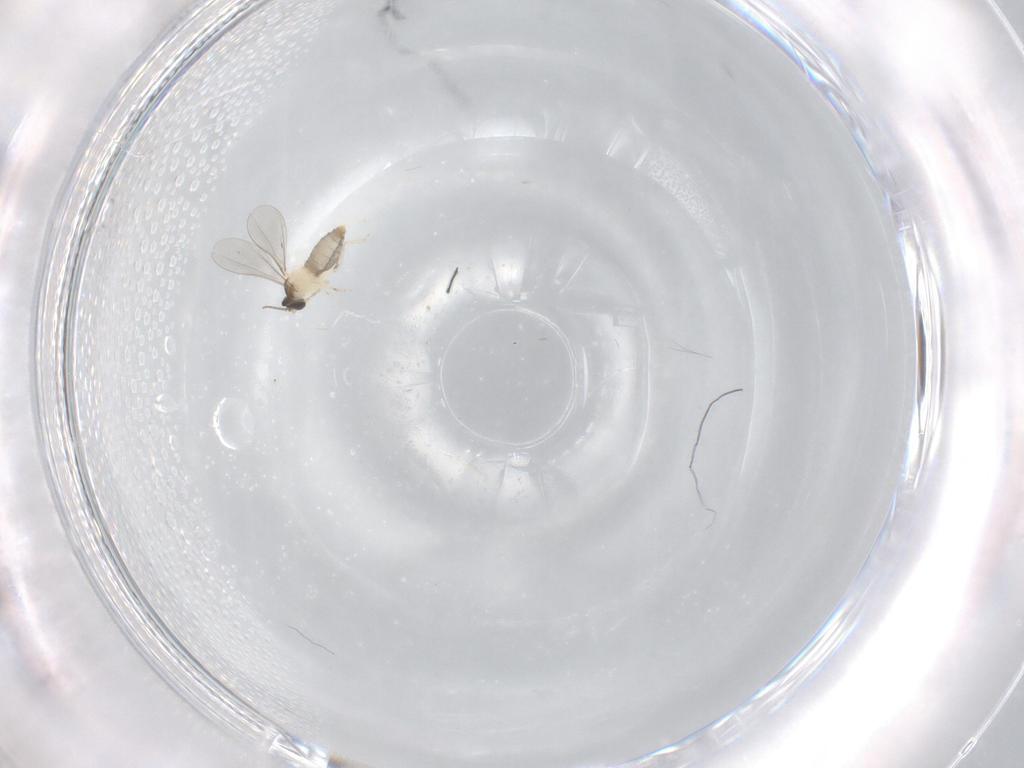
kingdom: Animalia
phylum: Arthropoda
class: Insecta
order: Diptera
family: Cecidomyiidae
